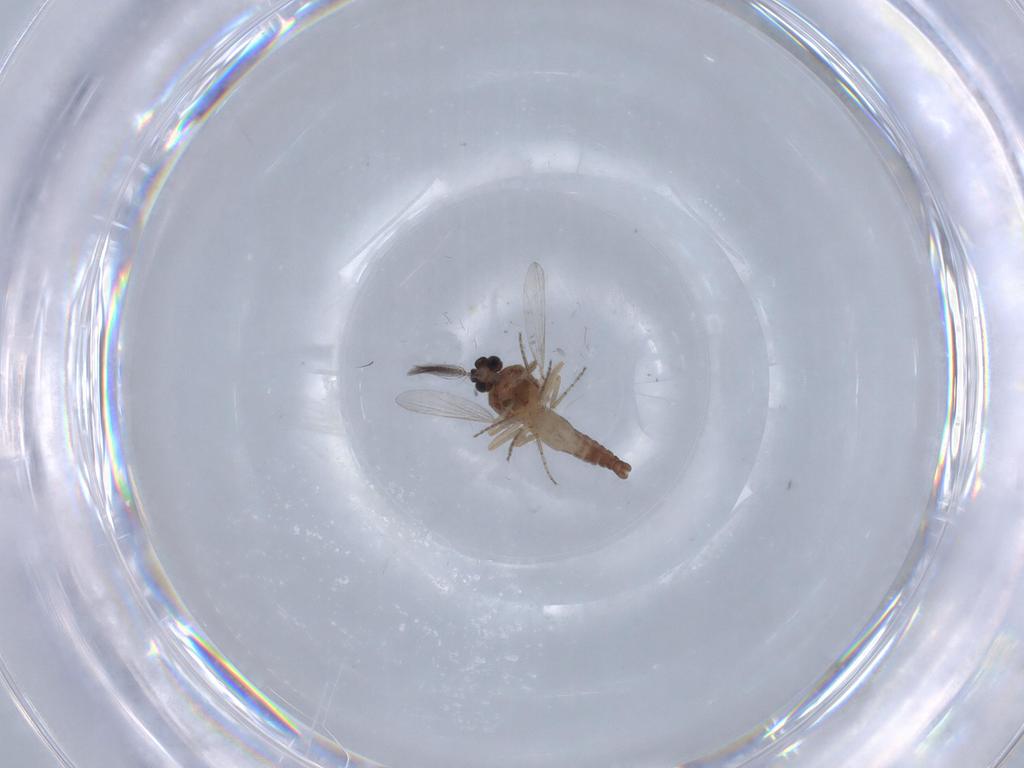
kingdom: Animalia
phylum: Arthropoda
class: Insecta
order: Diptera
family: Ceratopogonidae
